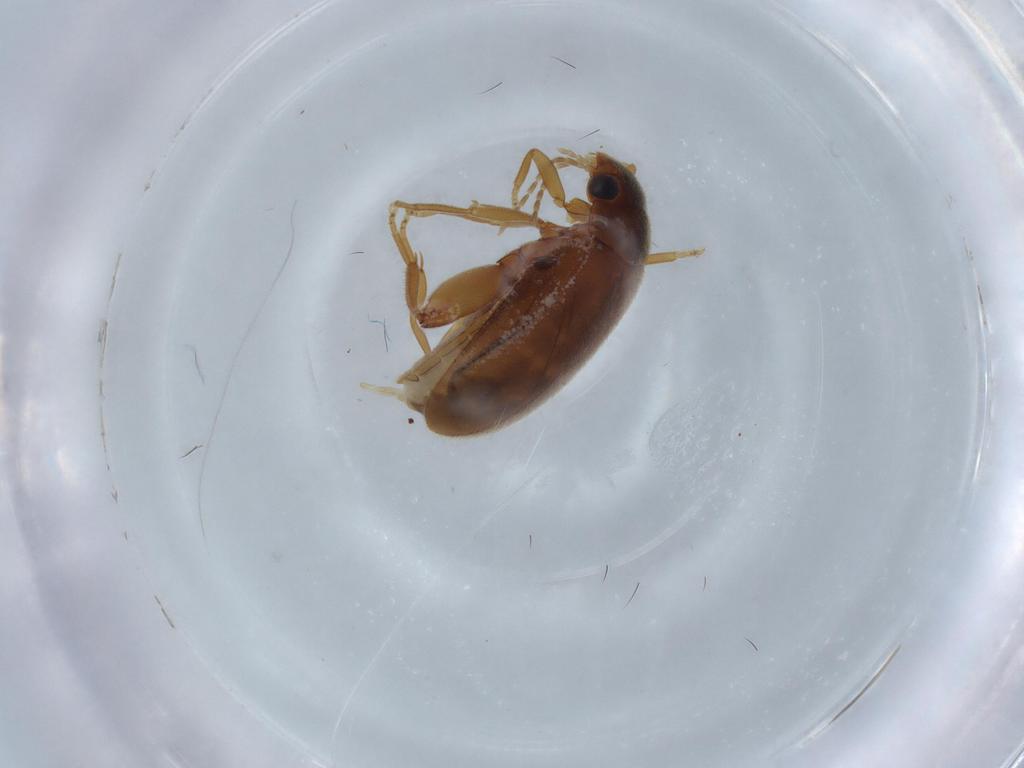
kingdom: Animalia
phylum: Arthropoda
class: Insecta
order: Coleoptera
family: Scirtidae
